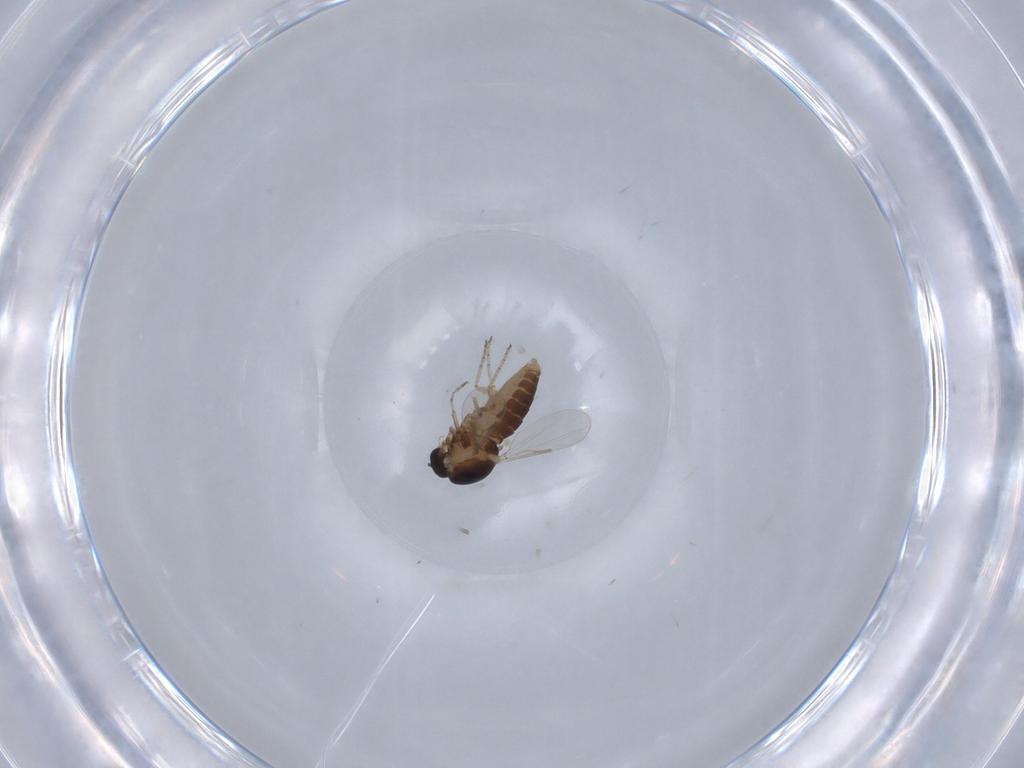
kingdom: Animalia
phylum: Arthropoda
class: Insecta
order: Diptera
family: Ceratopogonidae
